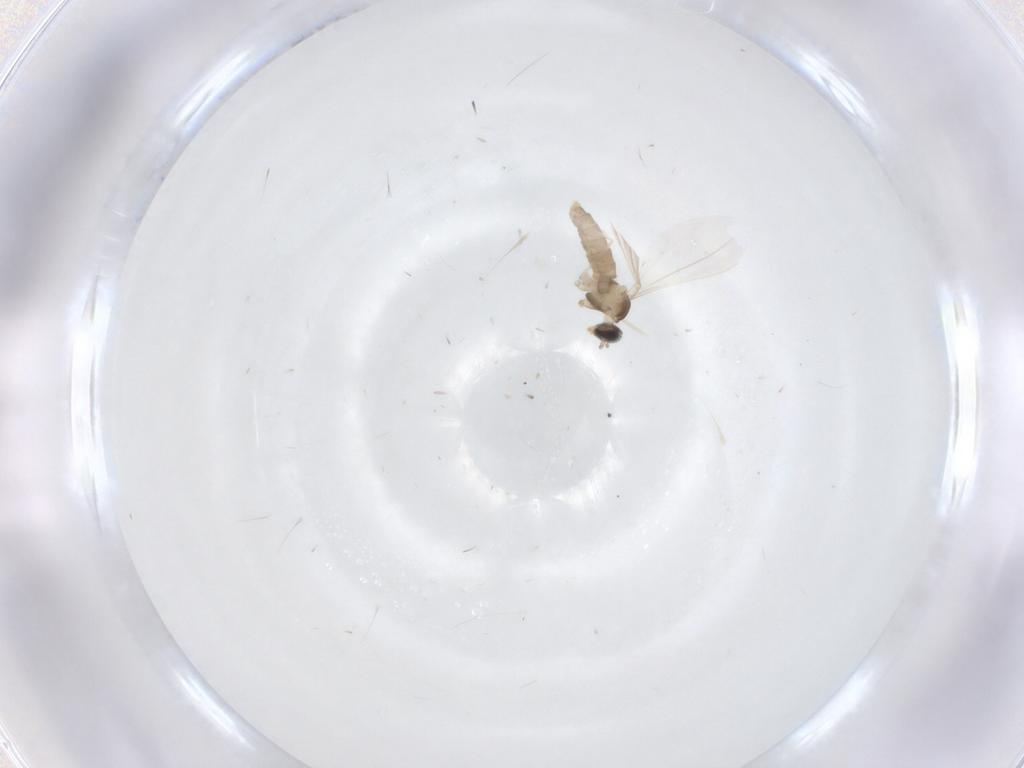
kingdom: Animalia
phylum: Arthropoda
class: Insecta
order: Diptera
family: Cecidomyiidae
